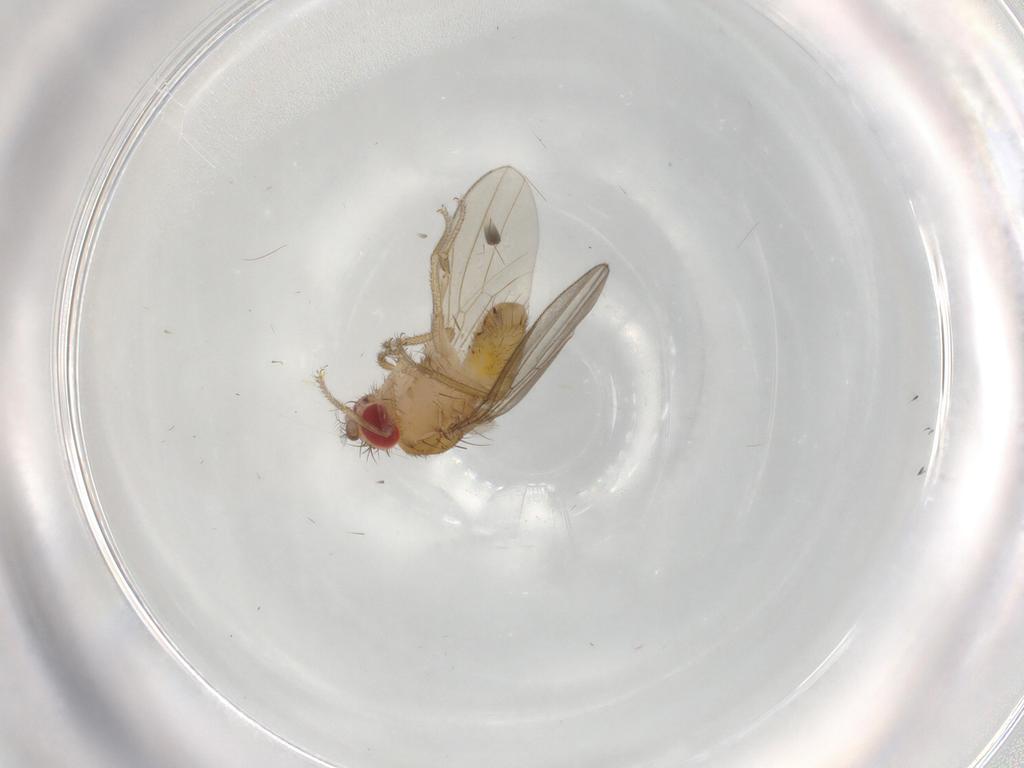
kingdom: Animalia
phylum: Arthropoda
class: Insecta
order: Diptera
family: Drosophilidae
